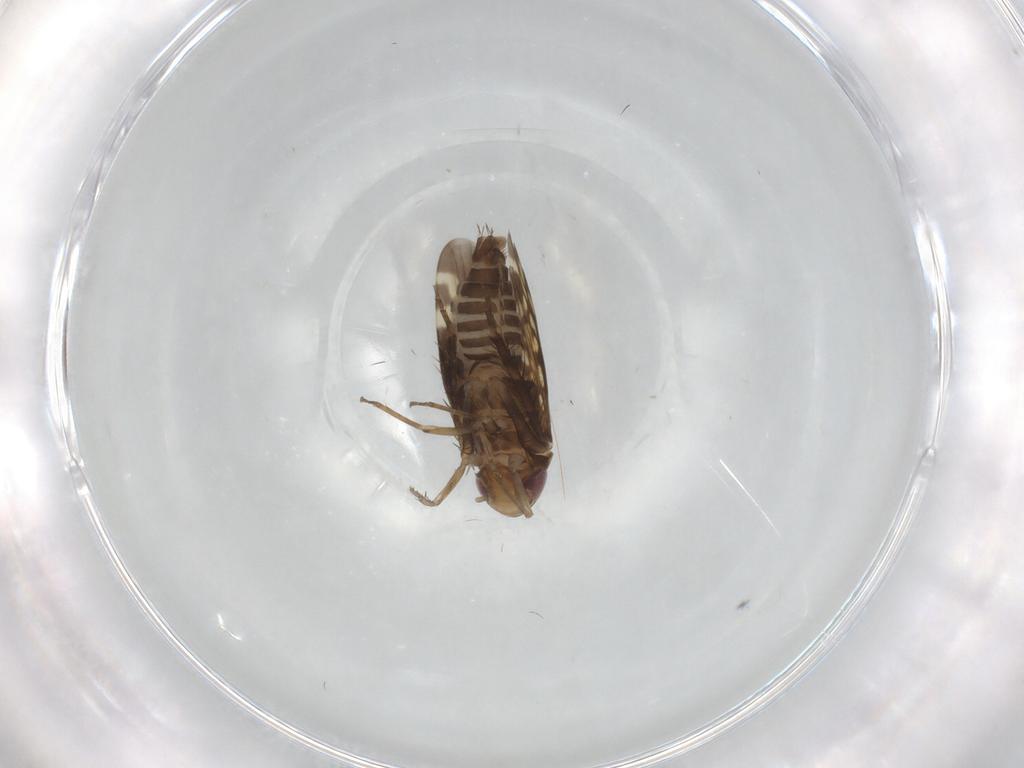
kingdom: Animalia
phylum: Arthropoda
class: Insecta
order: Hemiptera
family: Cicadellidae
